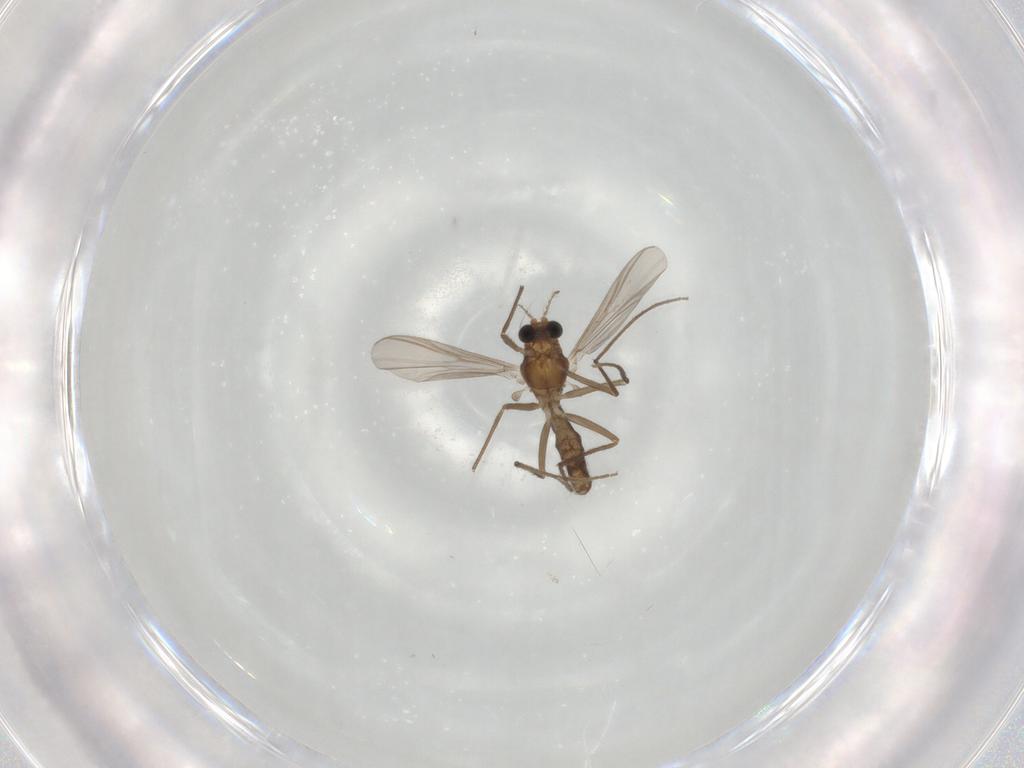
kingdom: Animalia
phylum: Arthropoda
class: Insecta
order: Diptera
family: Chironomidae
